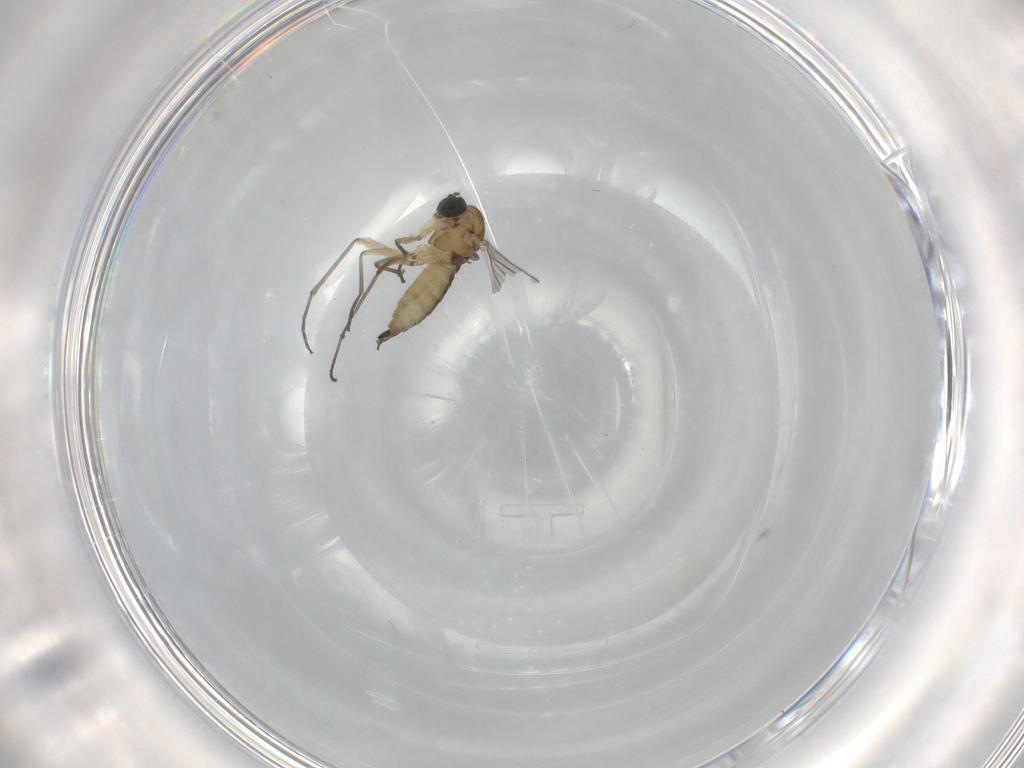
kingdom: Animalia
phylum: Arthropoda
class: Insecta
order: Diptera
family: Sciaridae
